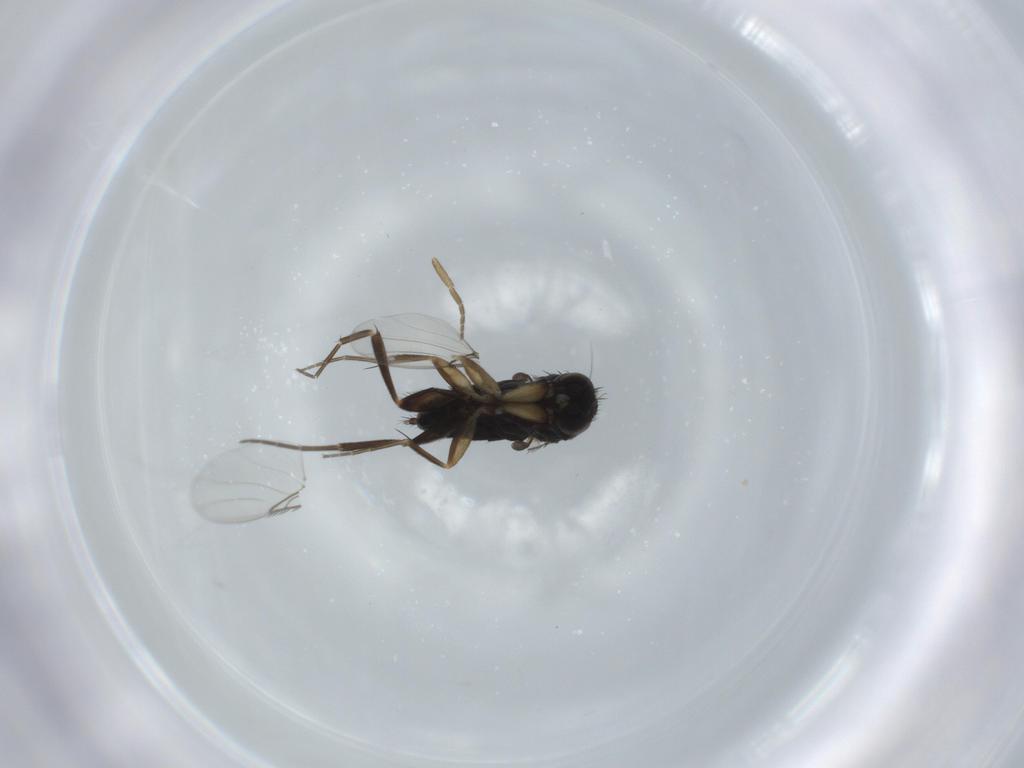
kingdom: Animalia
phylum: Arthropoda
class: Insecta
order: Diptera
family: Phoridae
